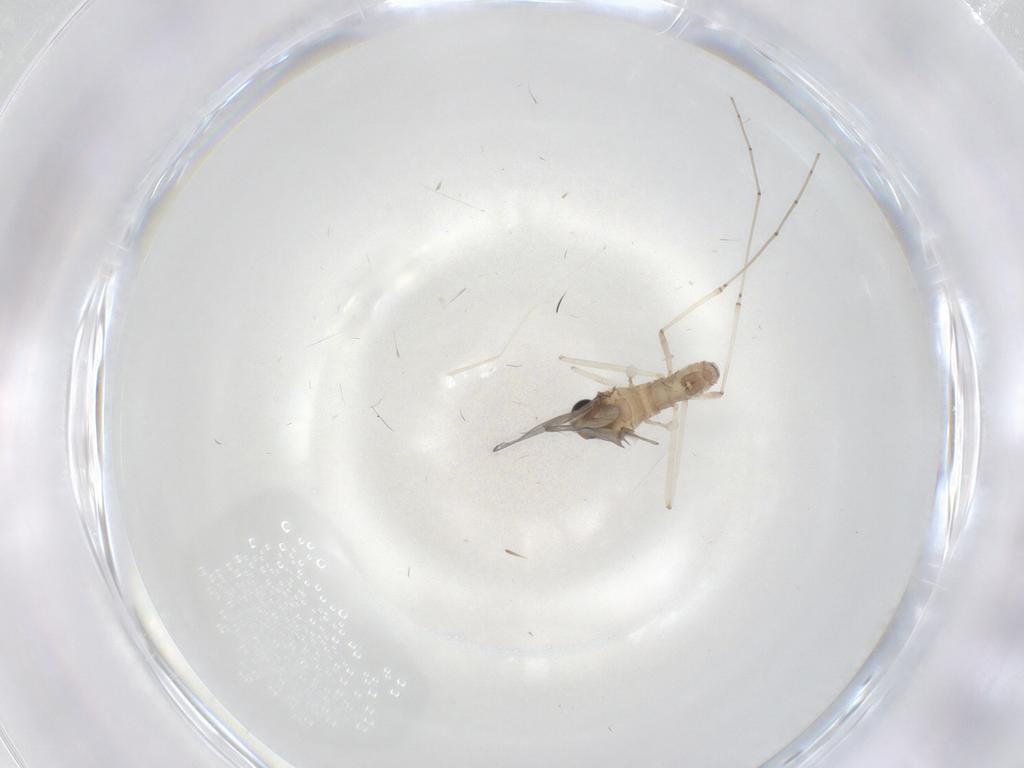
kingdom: Animalia
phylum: Arthropoda
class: Insecta
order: Diptera
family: Cecidomyiidae
